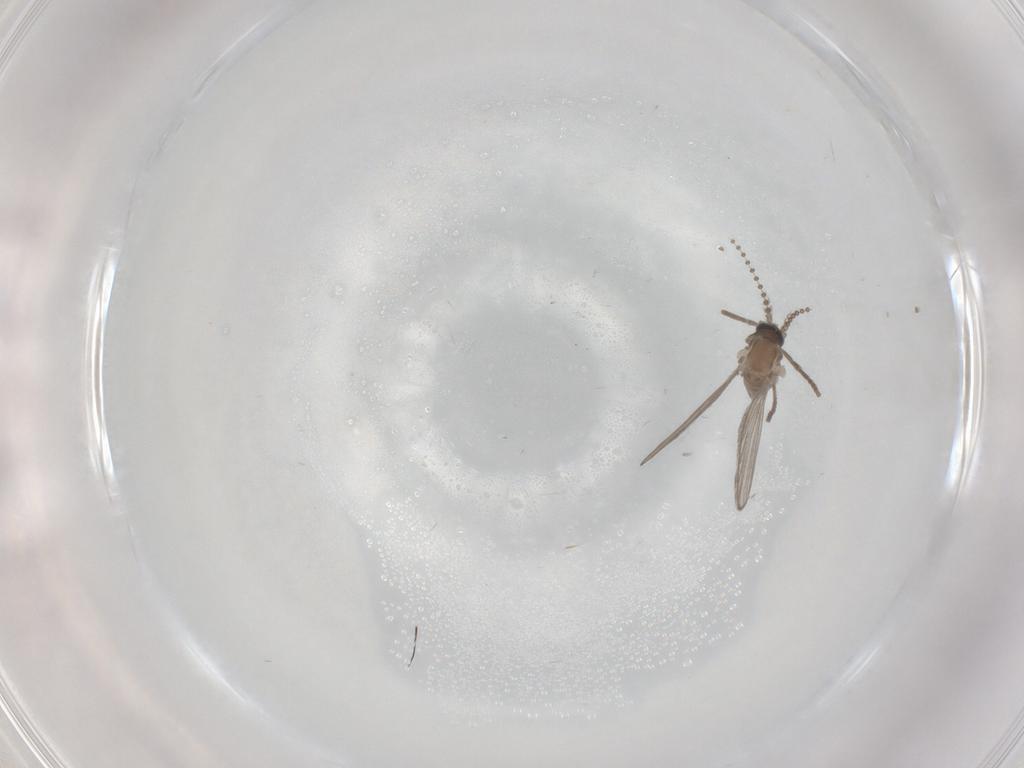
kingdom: Animalia
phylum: Arthropoda
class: Insecta
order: Diptera
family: Psychodidae
